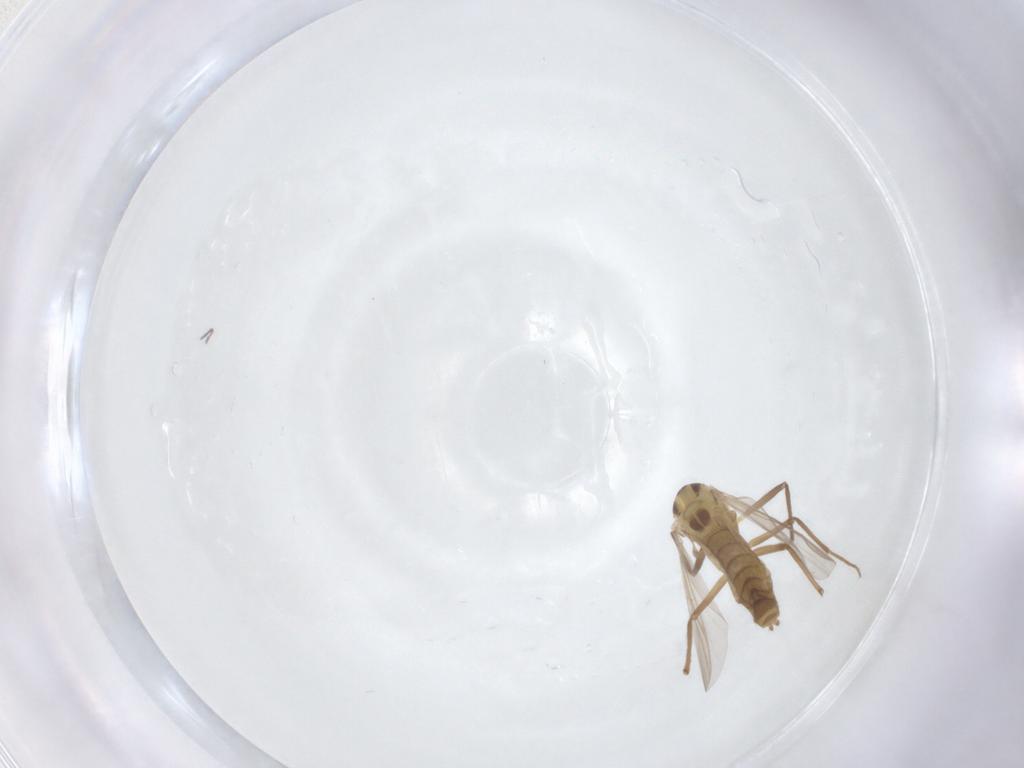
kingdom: Animalia
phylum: Arthropoda
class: Insecta
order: Diptera
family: Chironomidae
